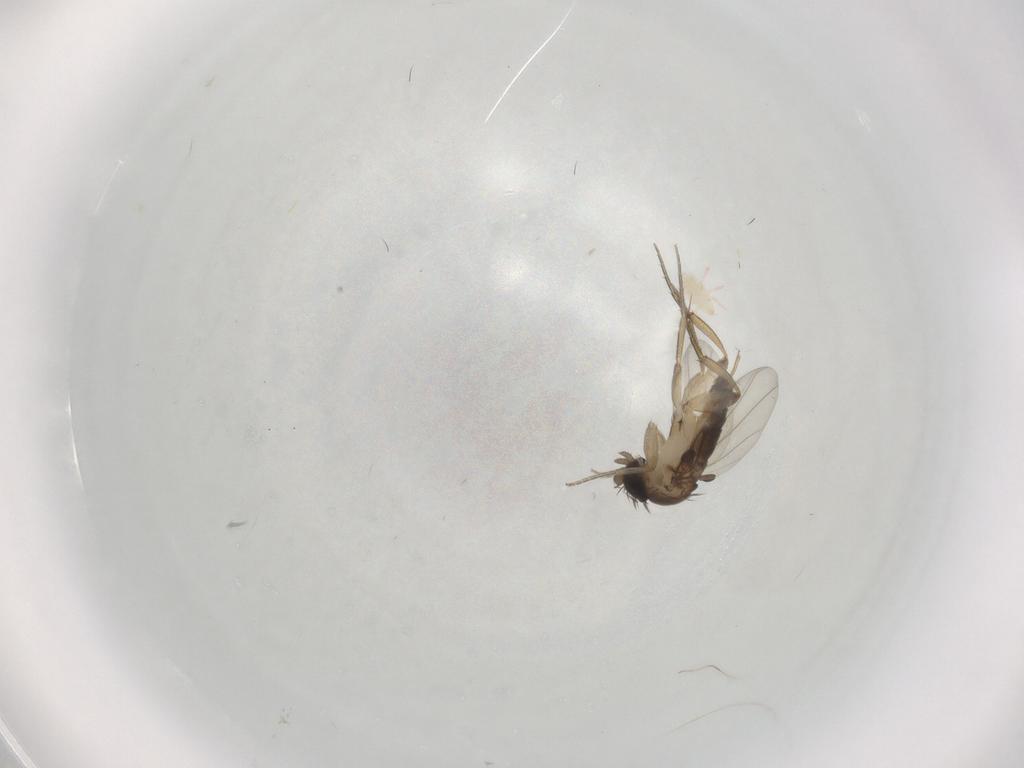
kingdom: Animalia
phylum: Arthropoda
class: Insecta
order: Diptera
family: Phoridae
